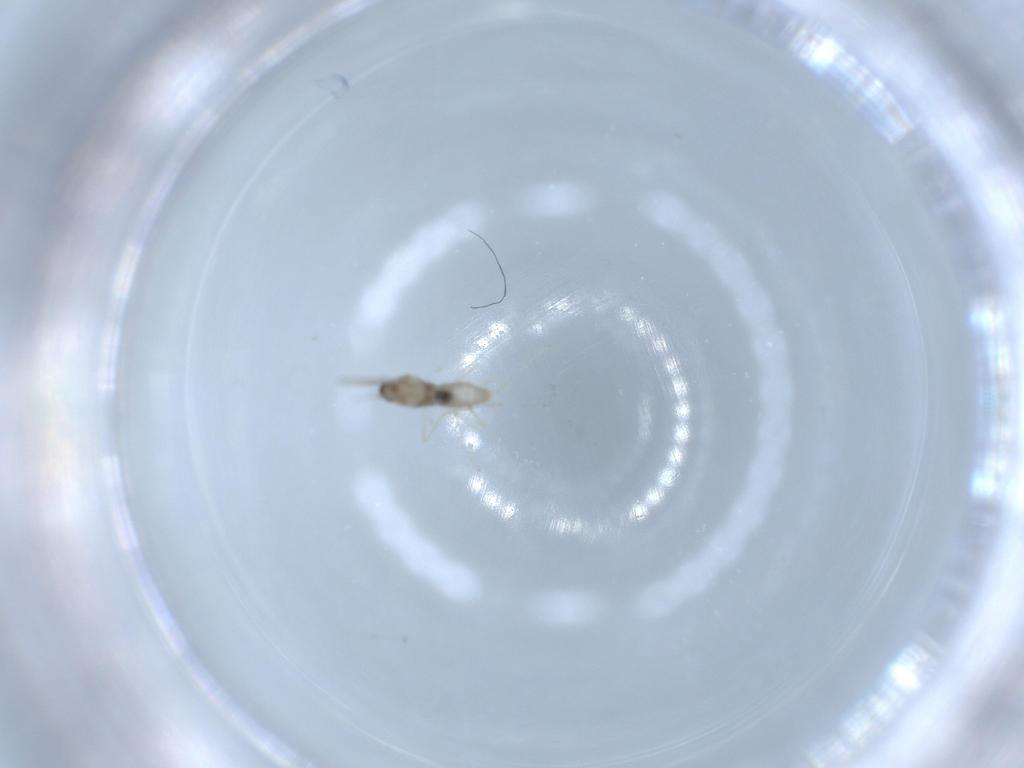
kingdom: Animalia
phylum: Arthropoda
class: Insecta
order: Diptera
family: Cecidomyiidae
